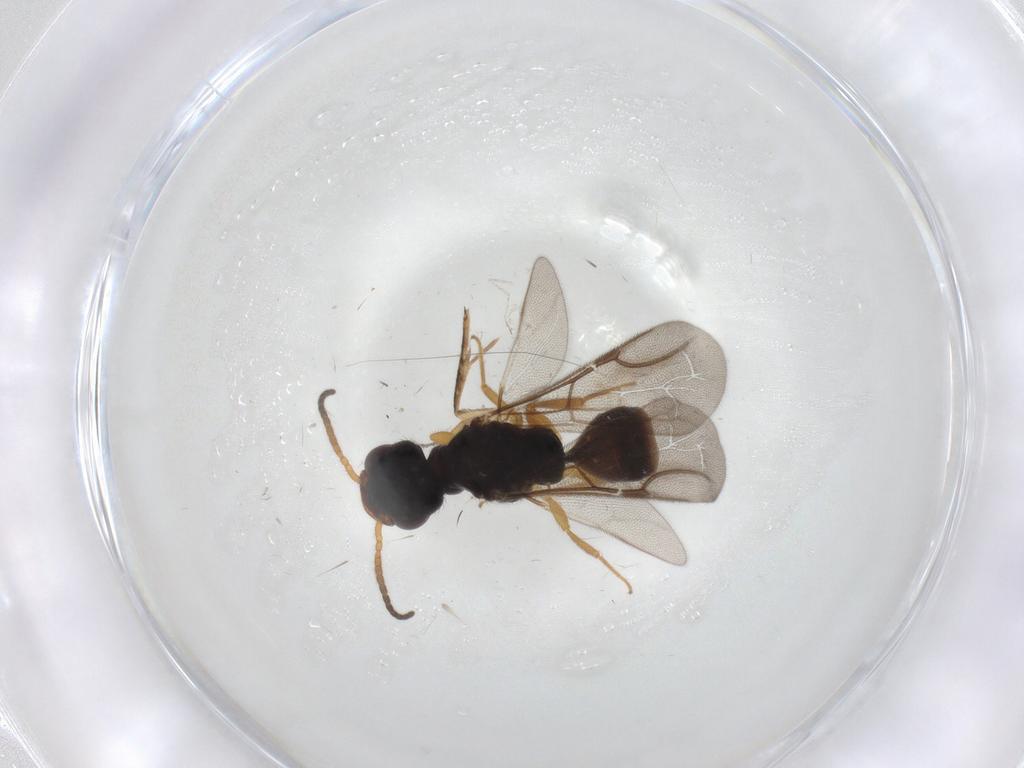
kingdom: Animalia
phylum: Arthropoda
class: Insecta
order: Hymenoptera
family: Bethylidae
